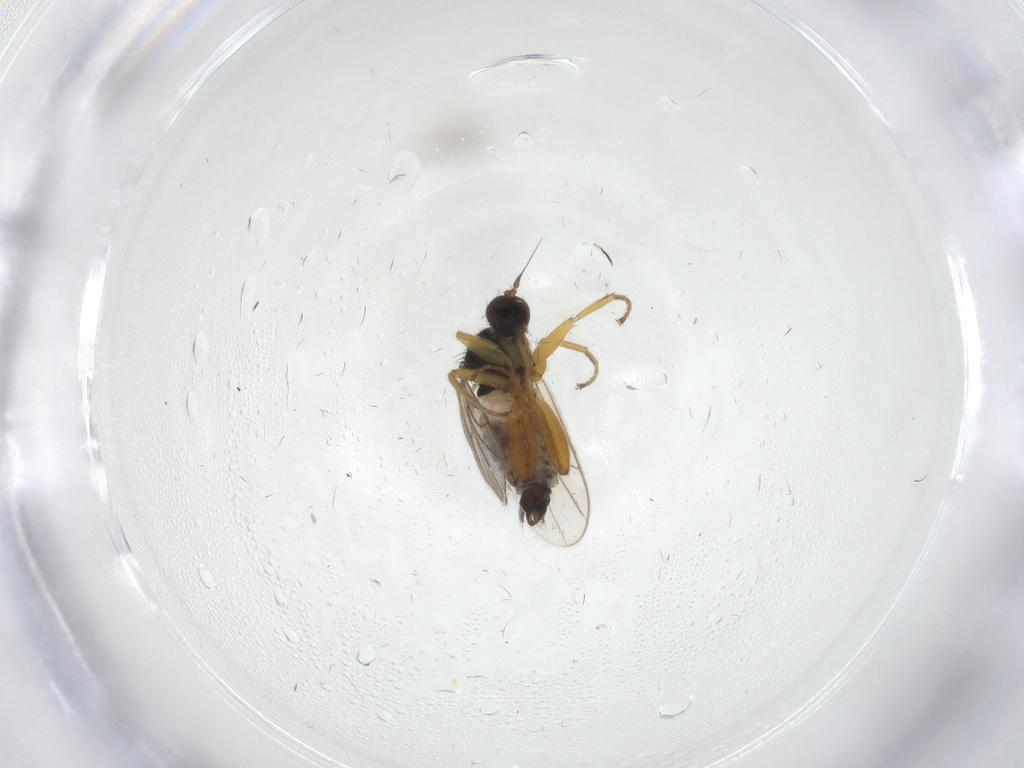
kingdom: Animalia
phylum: Arthropoda
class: Insecta
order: Diptera
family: Hybotidae
